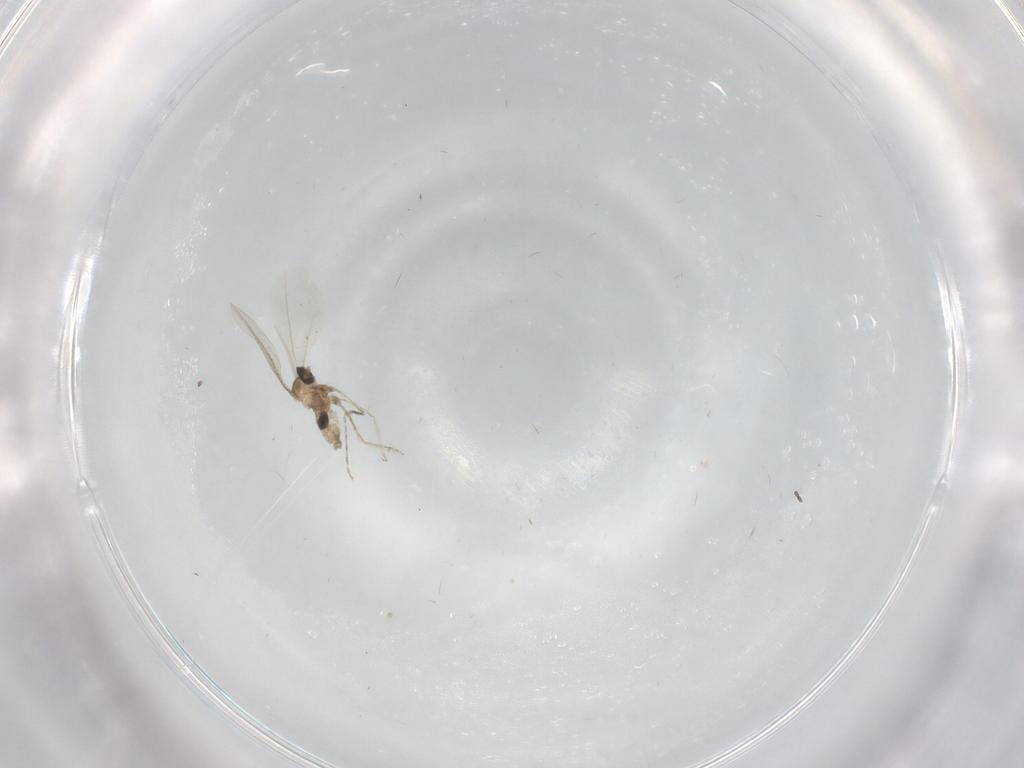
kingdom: Animalia
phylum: Arthropoda
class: Insecta
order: Diptera
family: Cecidomyiidae
